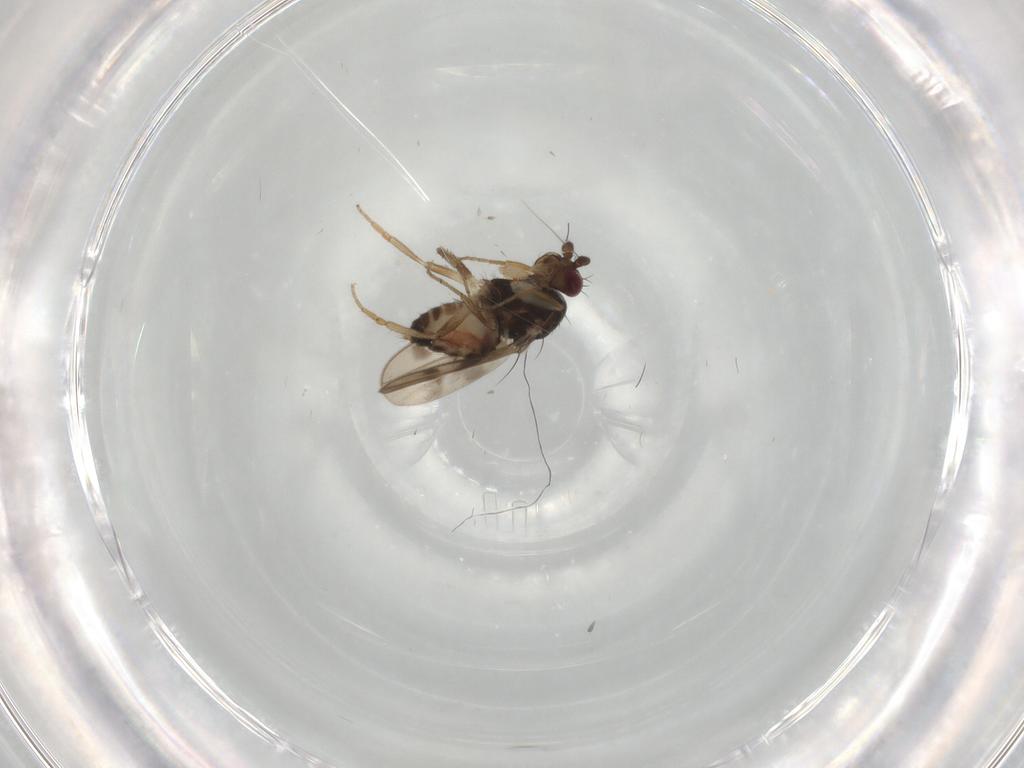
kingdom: Animalia
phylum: Arthropoda
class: Insecta
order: Diptera
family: Sphaeroceridae
